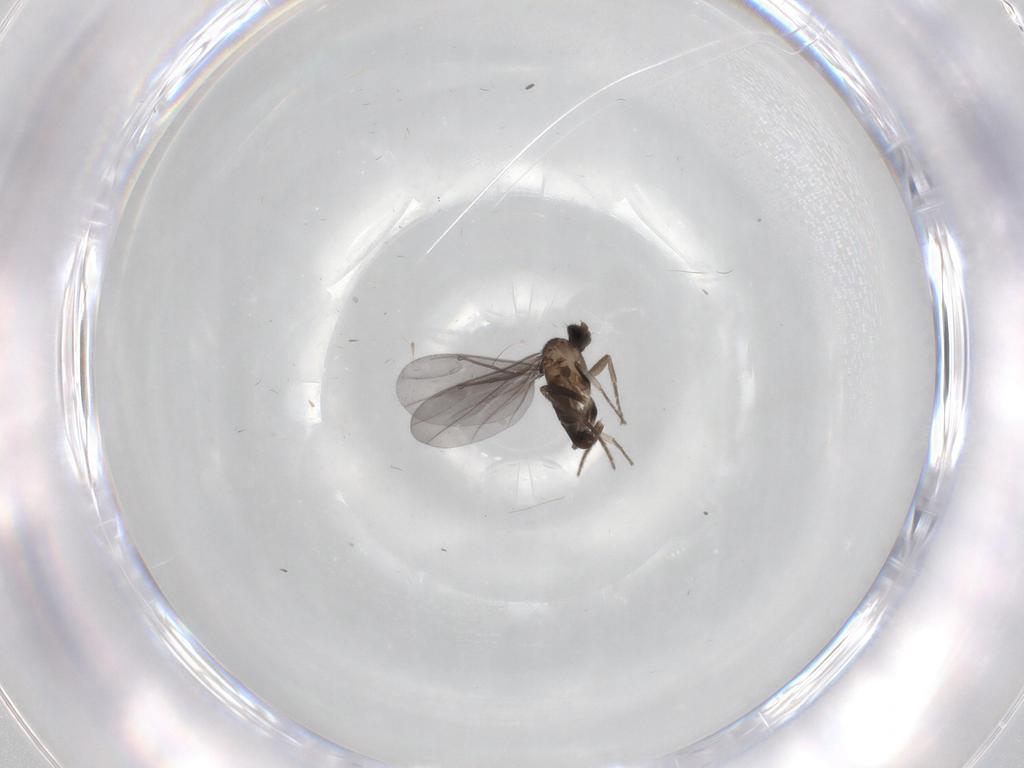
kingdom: Animalia
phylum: Arthropoda
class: Insecta
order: Diptera
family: Phoridae
